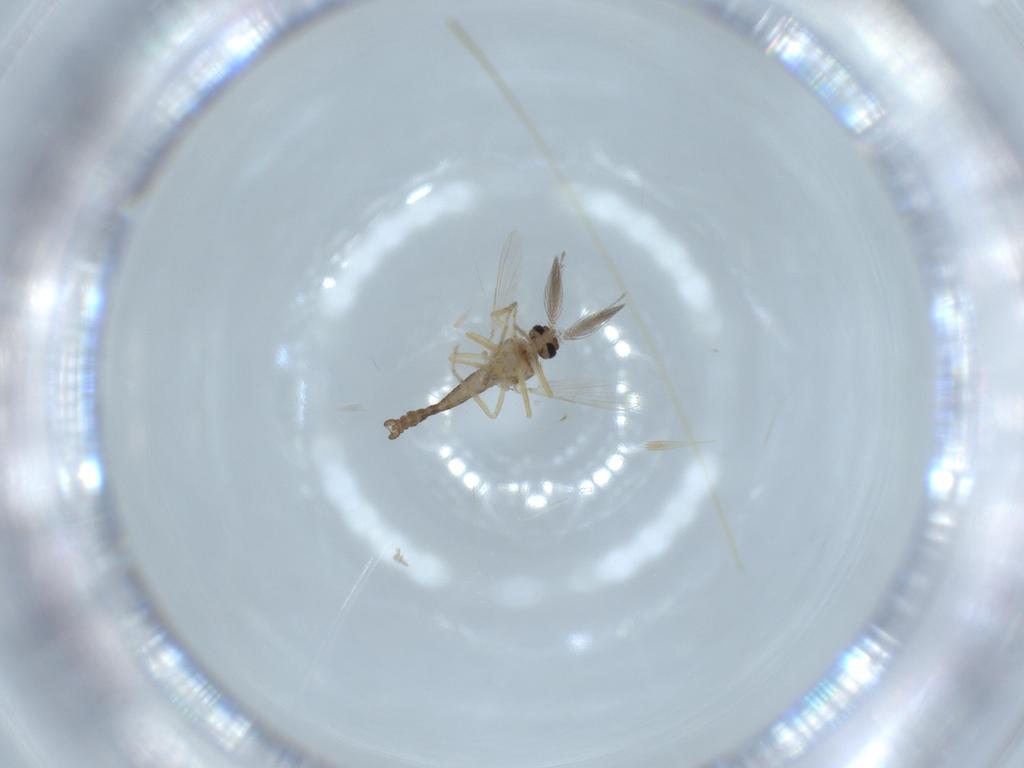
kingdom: Animalia
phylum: Arthropoda
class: Insecta
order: Diptera
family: Ceratopogonidae
